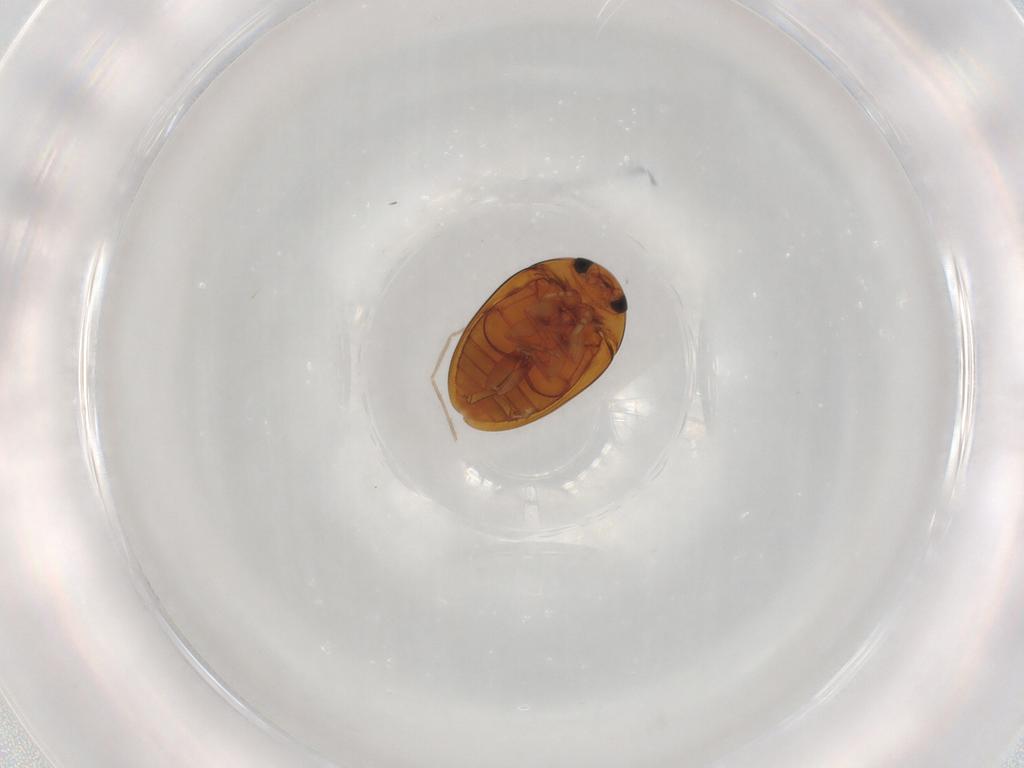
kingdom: Animalia
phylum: Arthropoda
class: Insecta
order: Coleoptera
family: Phalacridae
